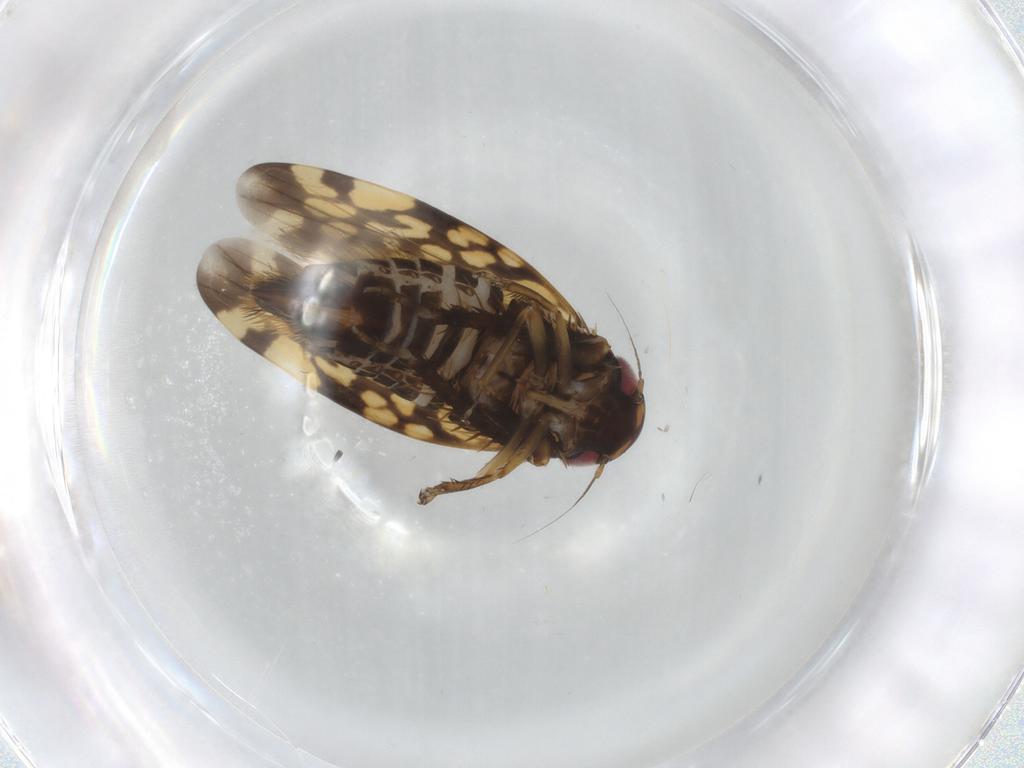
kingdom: Animalia
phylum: Arthropoda
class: Insecta
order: Hemiptera
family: Cicadellidae
